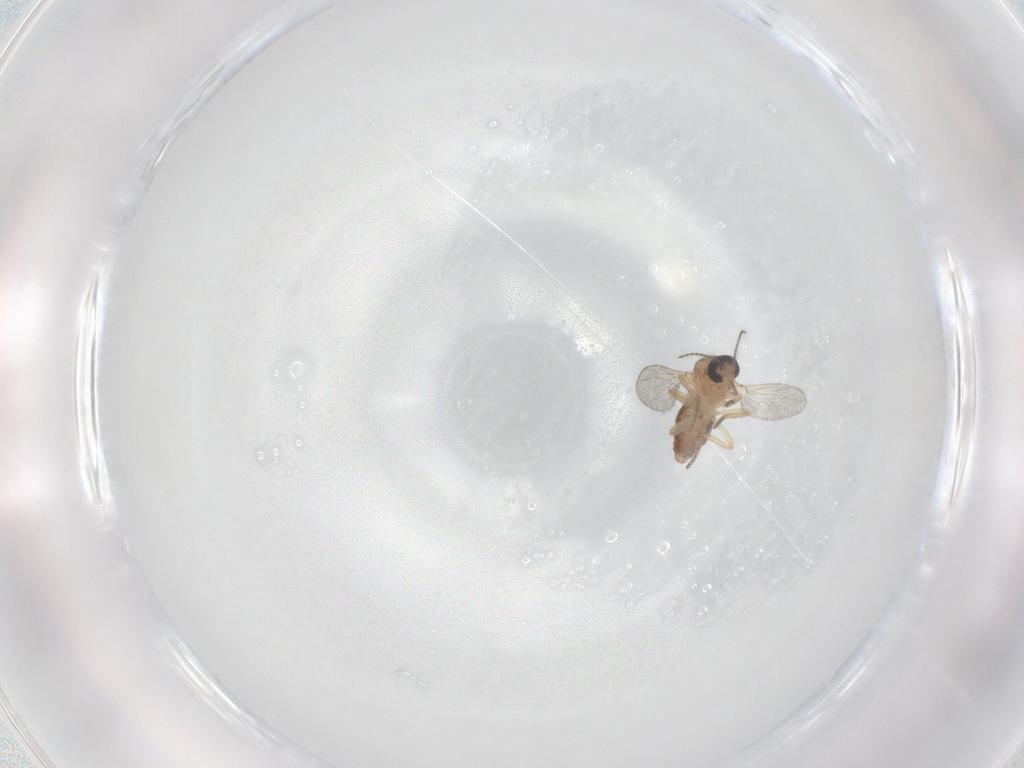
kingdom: Animalia
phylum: Arthropoda
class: Insecta
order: Diptera
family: Ceratopogonidae
